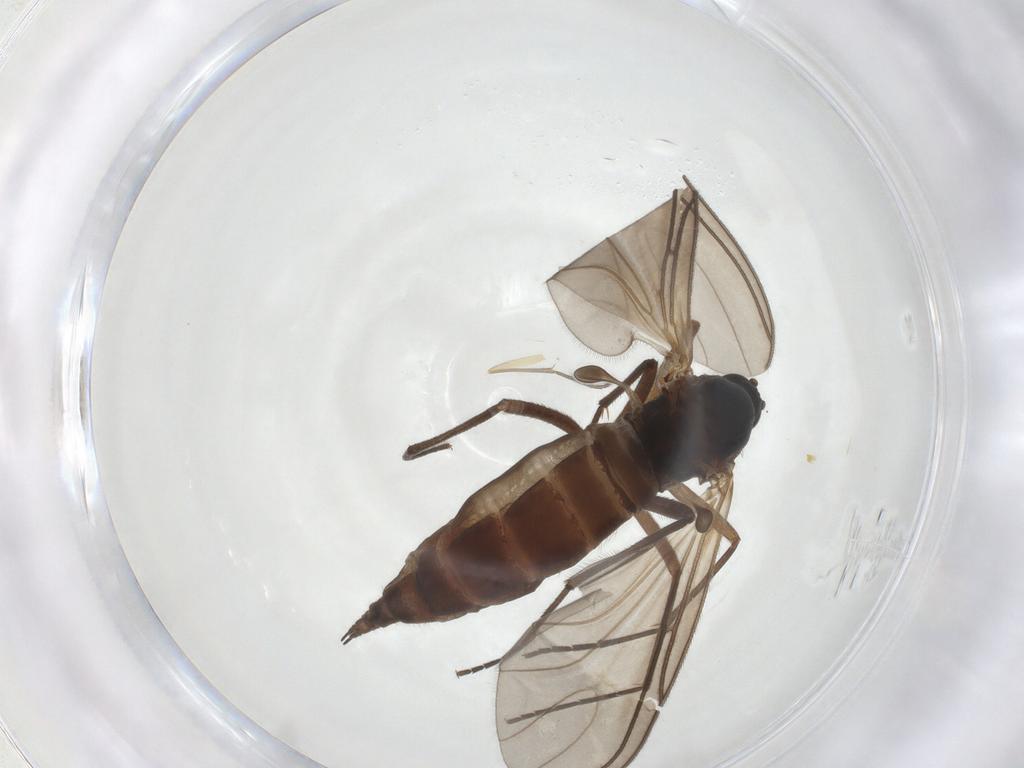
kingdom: Animalia
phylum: Arthropoda
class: Insecta
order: Diptera
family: Sciaridae
